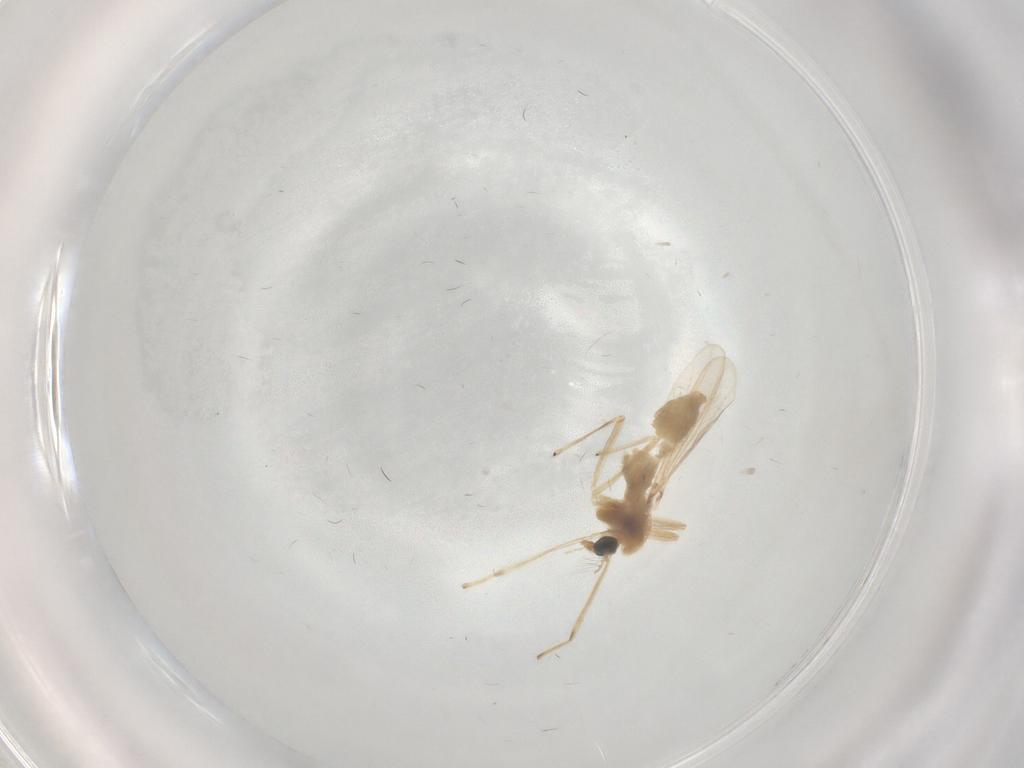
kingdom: Animalia
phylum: Arthropoda
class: Insecta
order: Diptera
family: Chironomidae
